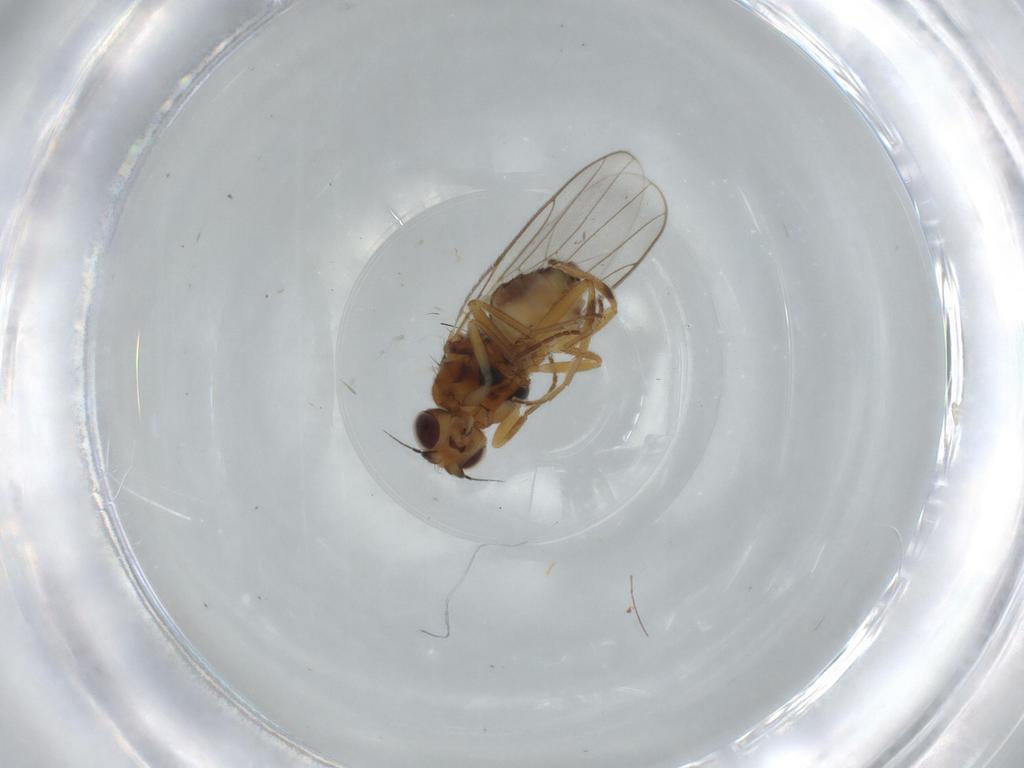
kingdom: Animalia
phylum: Arthropoda
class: Insecta
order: Diptera
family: Chloropidae
